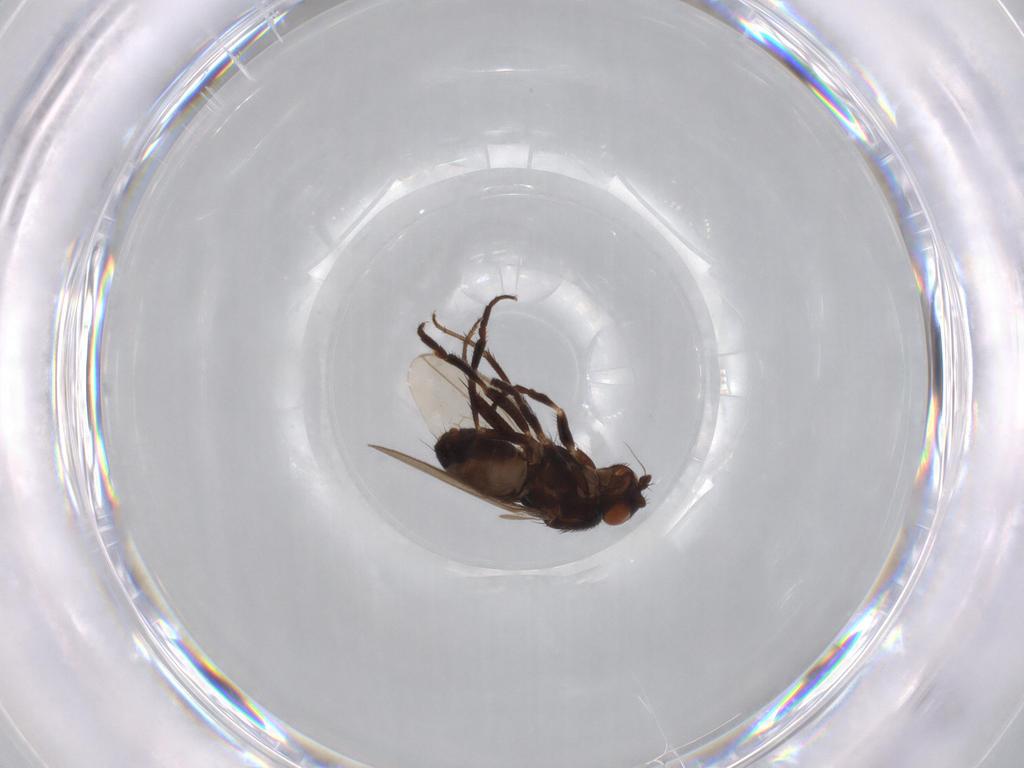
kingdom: Animalia
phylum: Arthropoda
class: Insecta
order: Diptera
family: Sphaeroceridae
